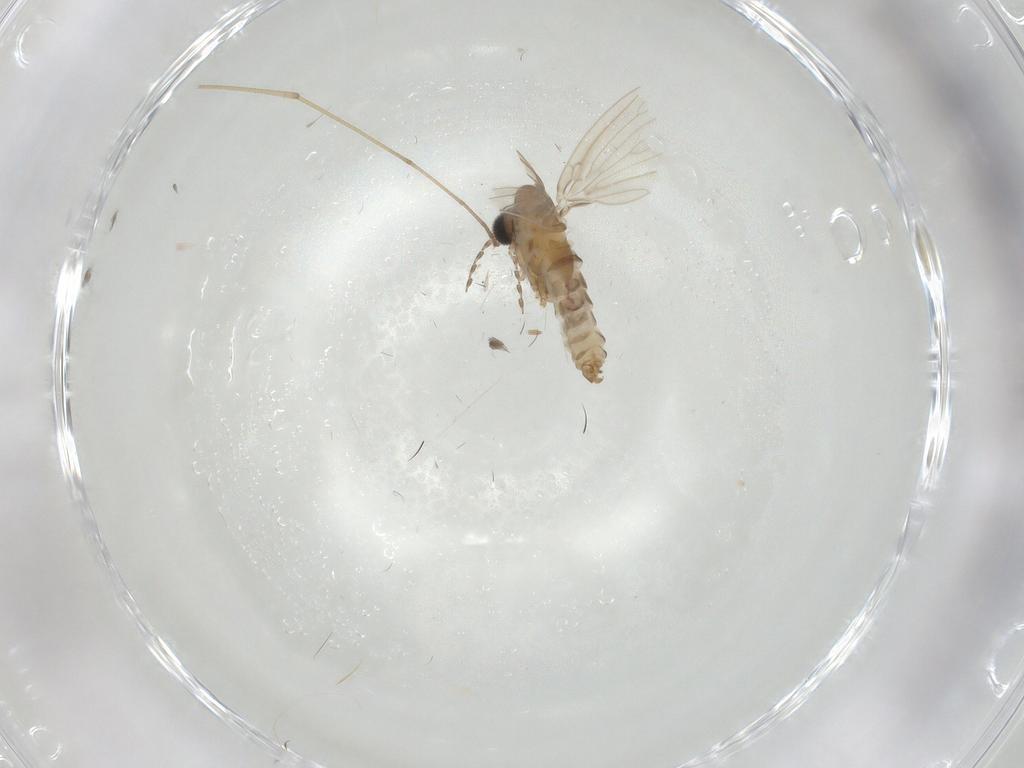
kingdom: Animalia
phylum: Arthropoda
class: Insecta
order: Diptera
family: Limoniidae
